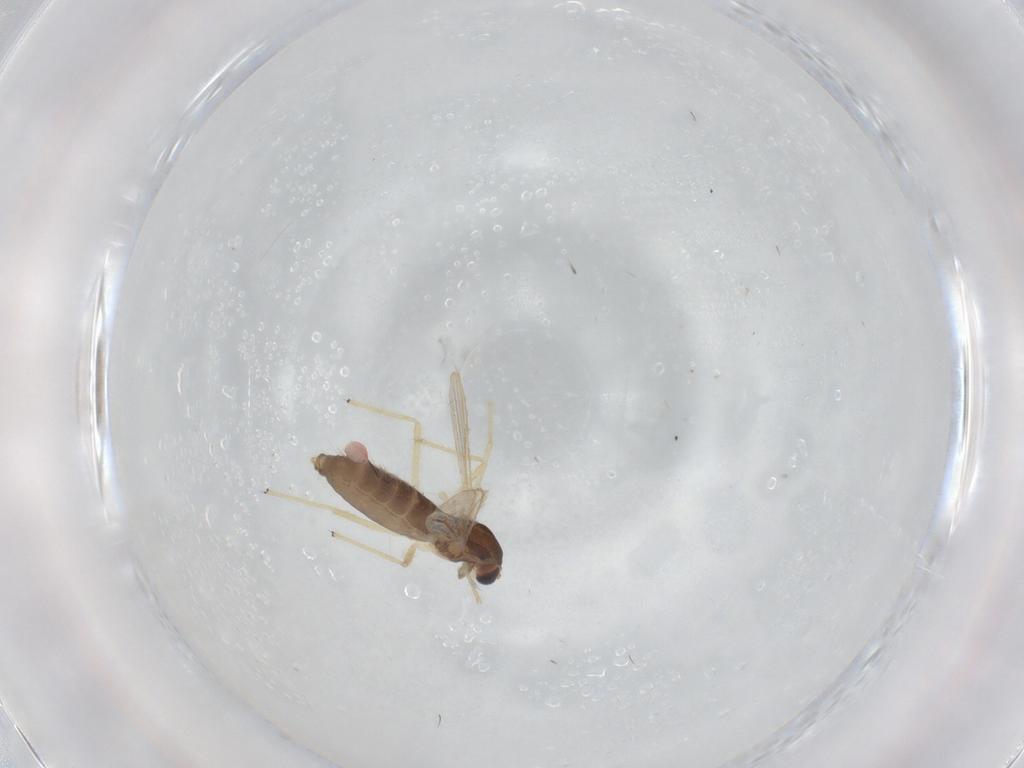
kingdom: Animalia
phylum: Arthropoda
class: Insecta
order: Diptera
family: Chironomidae
